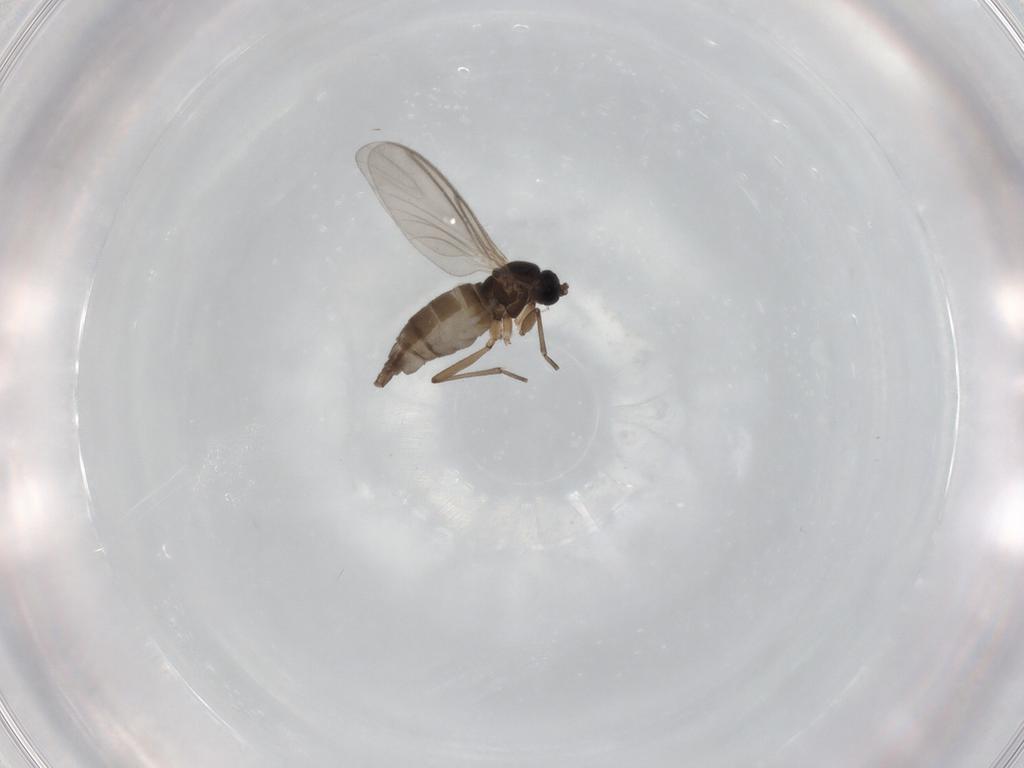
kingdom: Animalia
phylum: Arthropoda
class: Insecta
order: Diptera
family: Sciaridae
